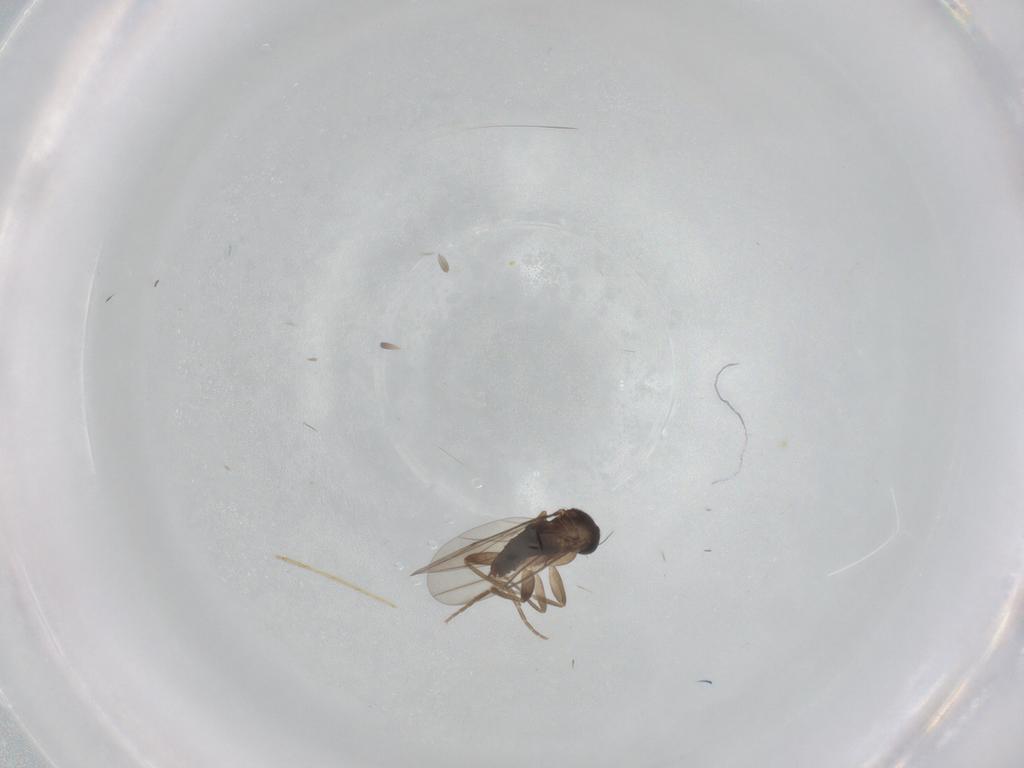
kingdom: Animalia
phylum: Arthropoda
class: Insecta
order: Diptera
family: Phoridae
